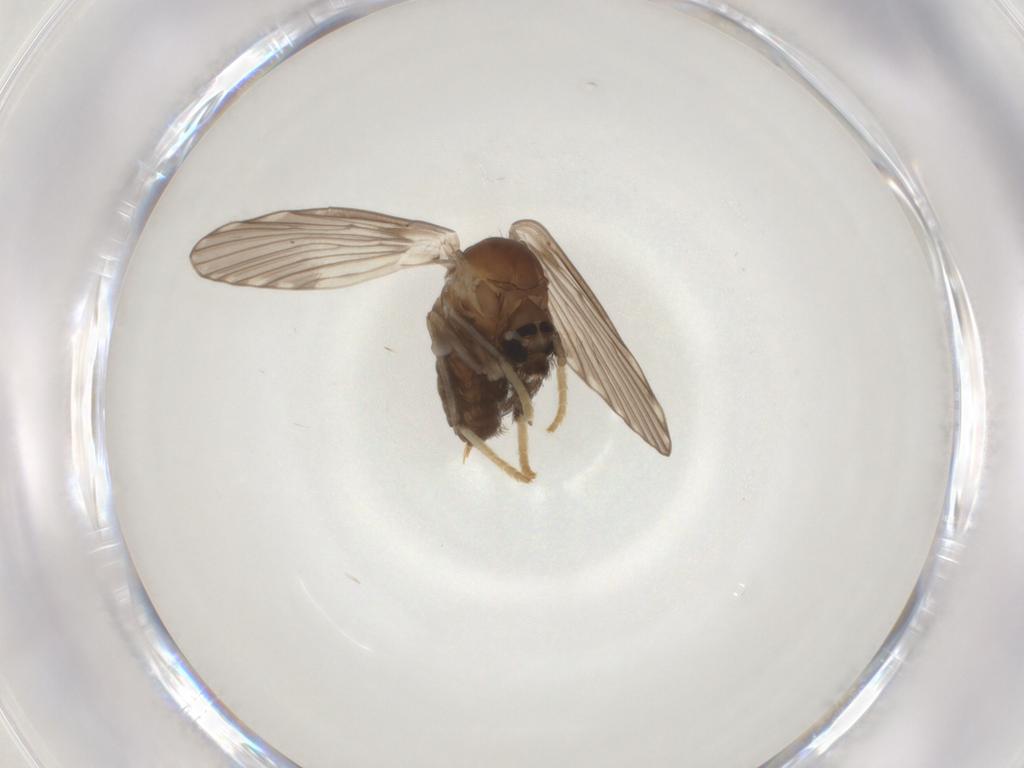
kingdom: Animalia
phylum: Arthropoda
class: Insecta
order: Diptera
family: Psychodidae
